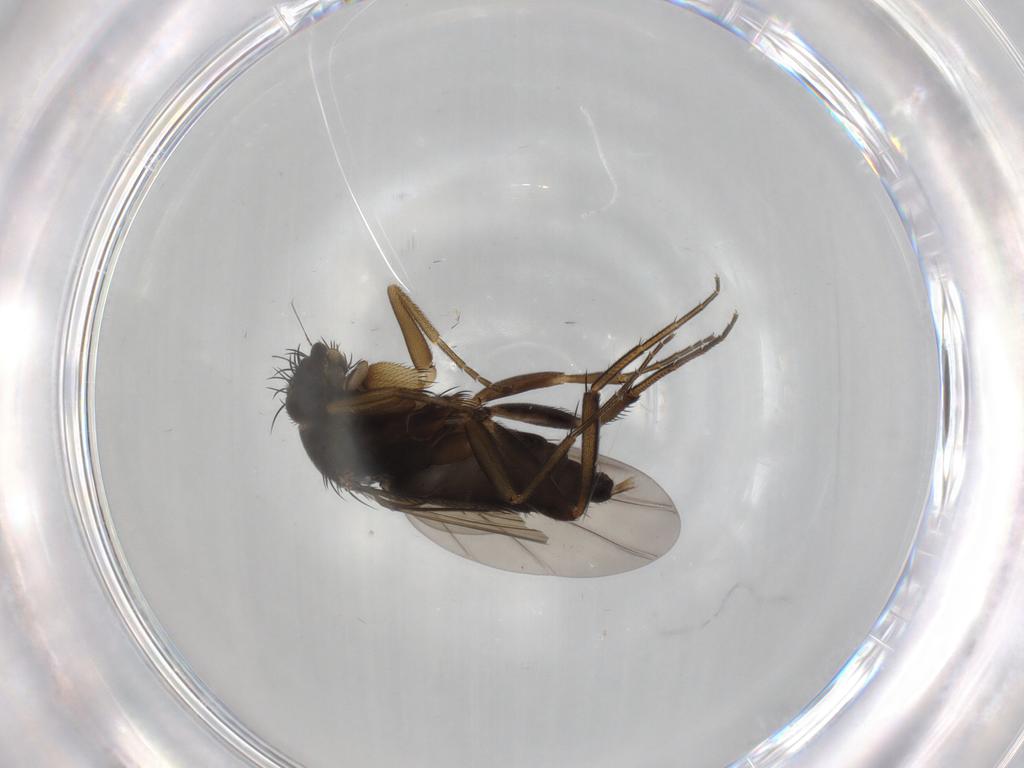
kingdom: Animalia
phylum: Arthropoda
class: Insecta
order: Diptera
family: Phoridae
